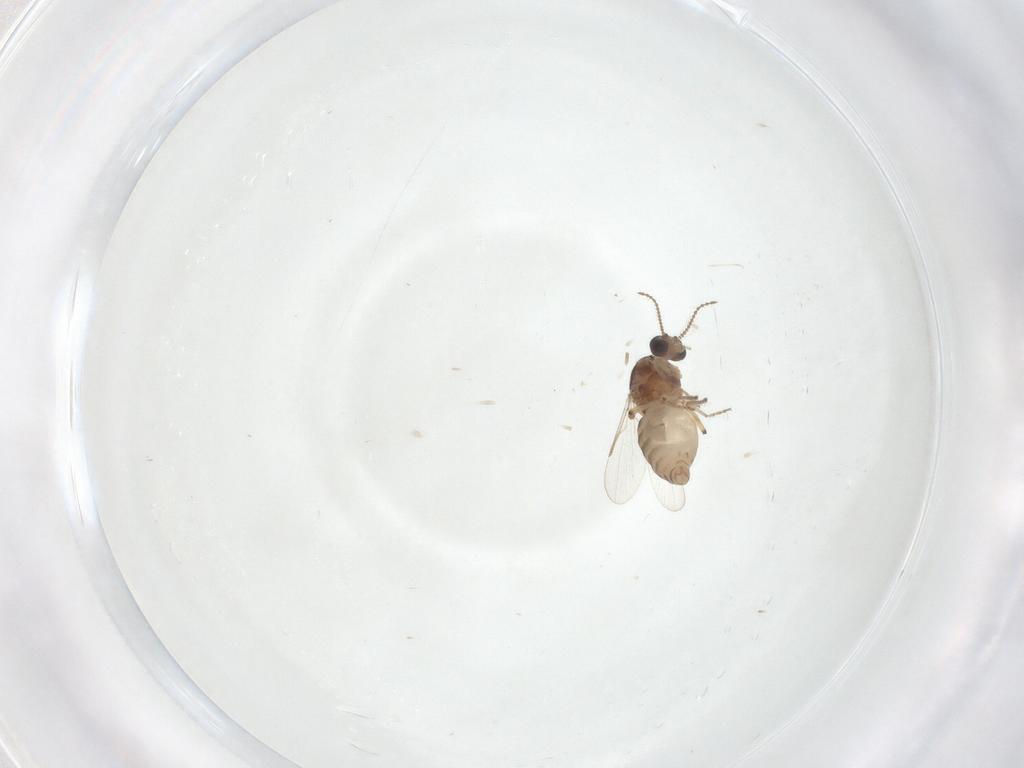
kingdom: Animalia
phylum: Arthropoda
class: Insecta
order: Diptera
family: Ceratopogonidae
